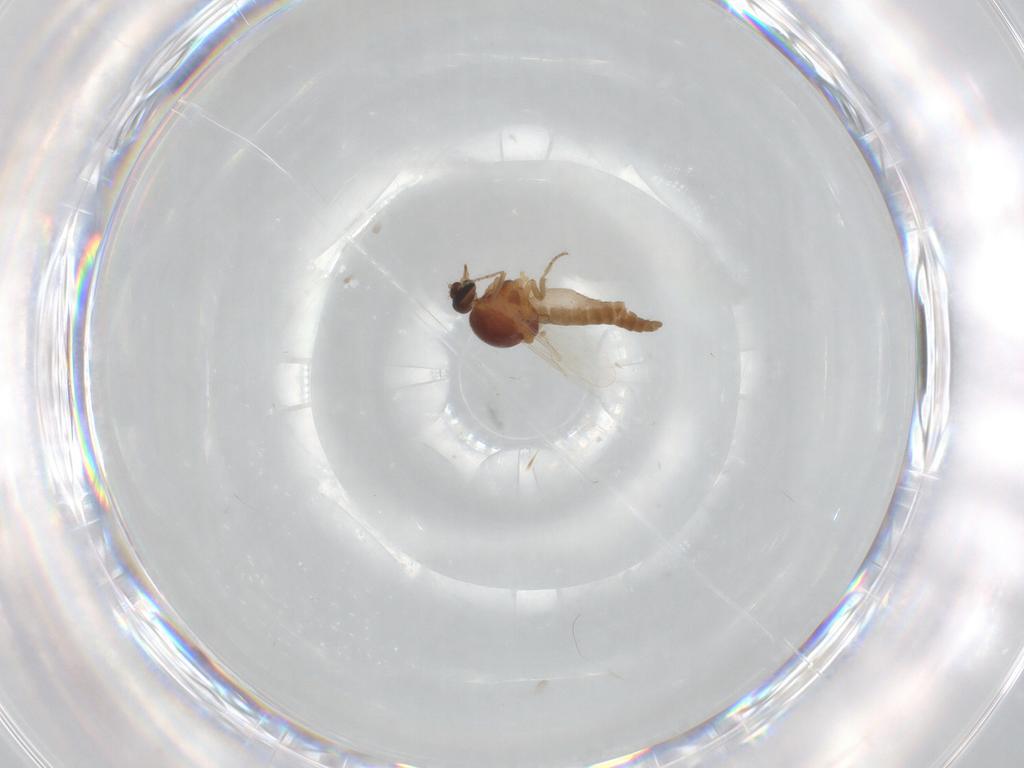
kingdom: Animalia
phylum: Arthropoda
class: Insecta
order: Diptera
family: Ceratopogonidae
